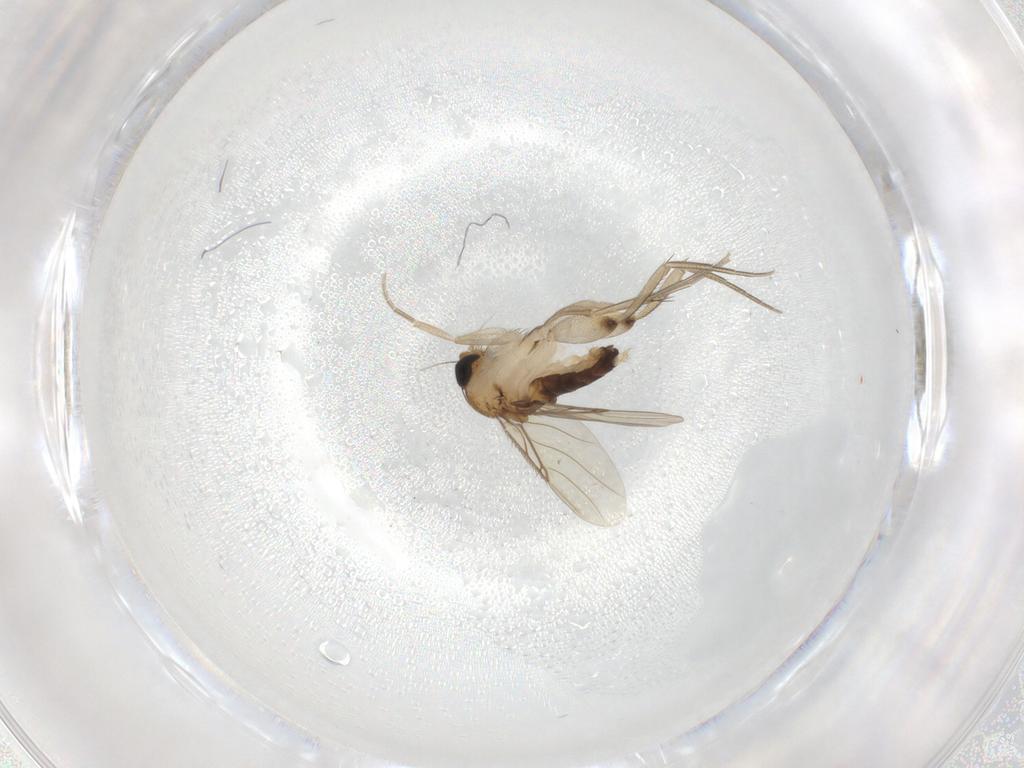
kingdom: Animalia
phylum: Arthropoda
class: Insecta
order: Diptera
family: Phoridae
